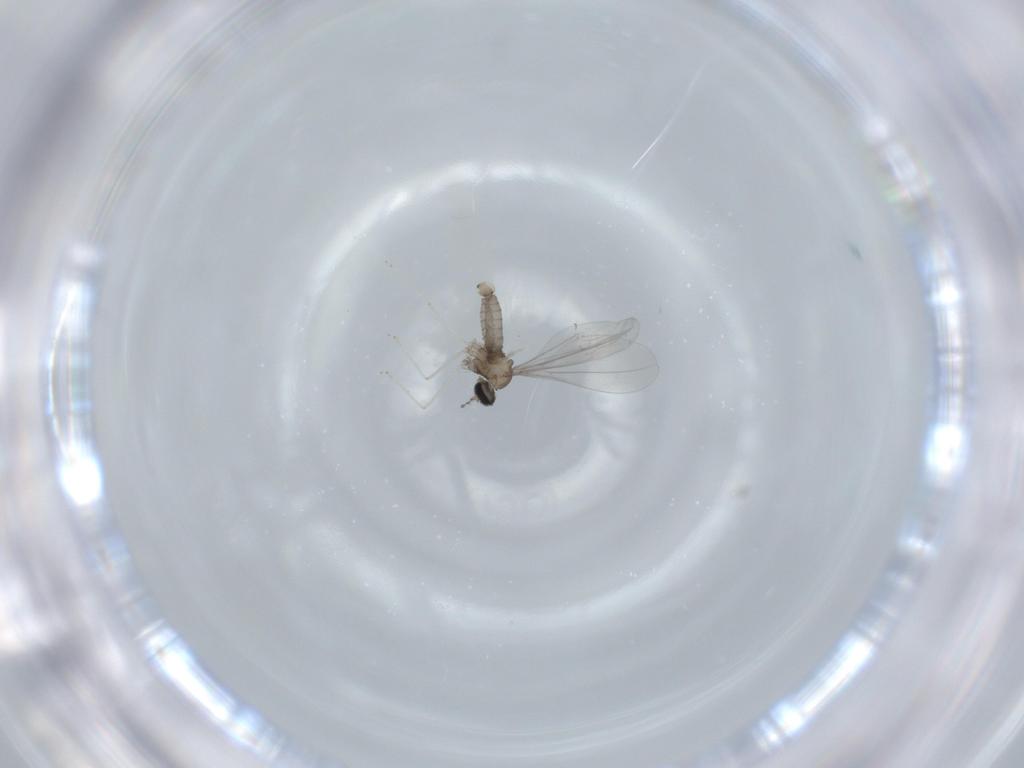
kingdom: Animalia
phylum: Arthropoda
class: Insecta
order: Diptera
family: Cecidomyiidae
